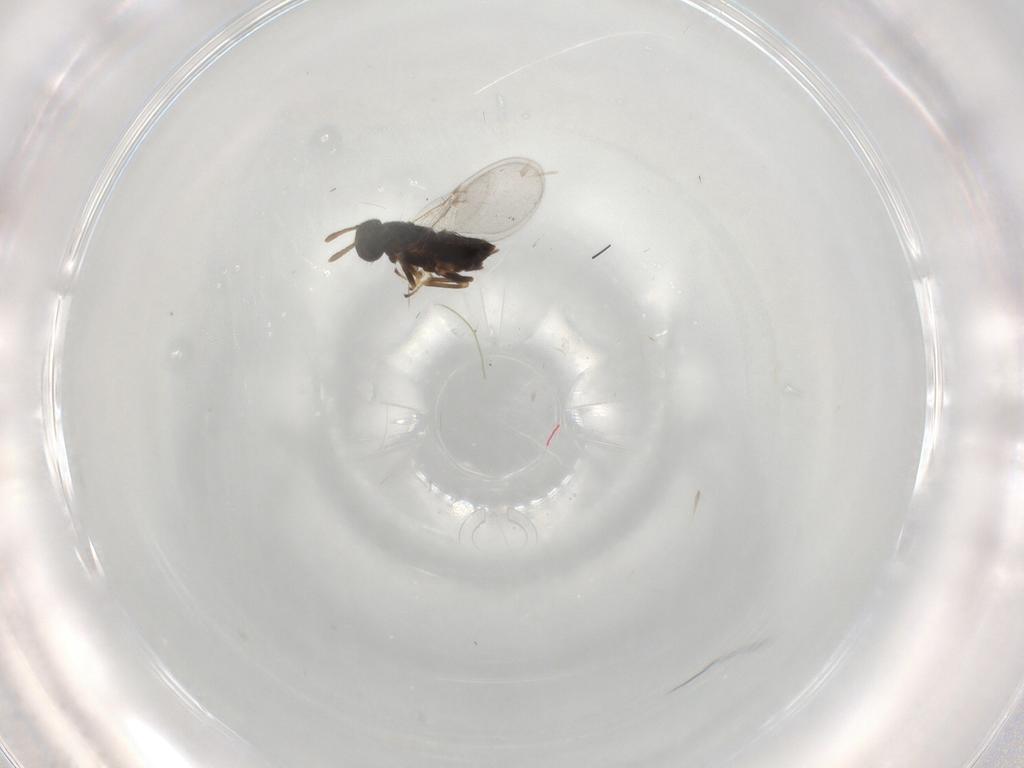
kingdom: Animalia
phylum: Arthropoda
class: Insecta
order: Hymenoptera
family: Encyrtidae
